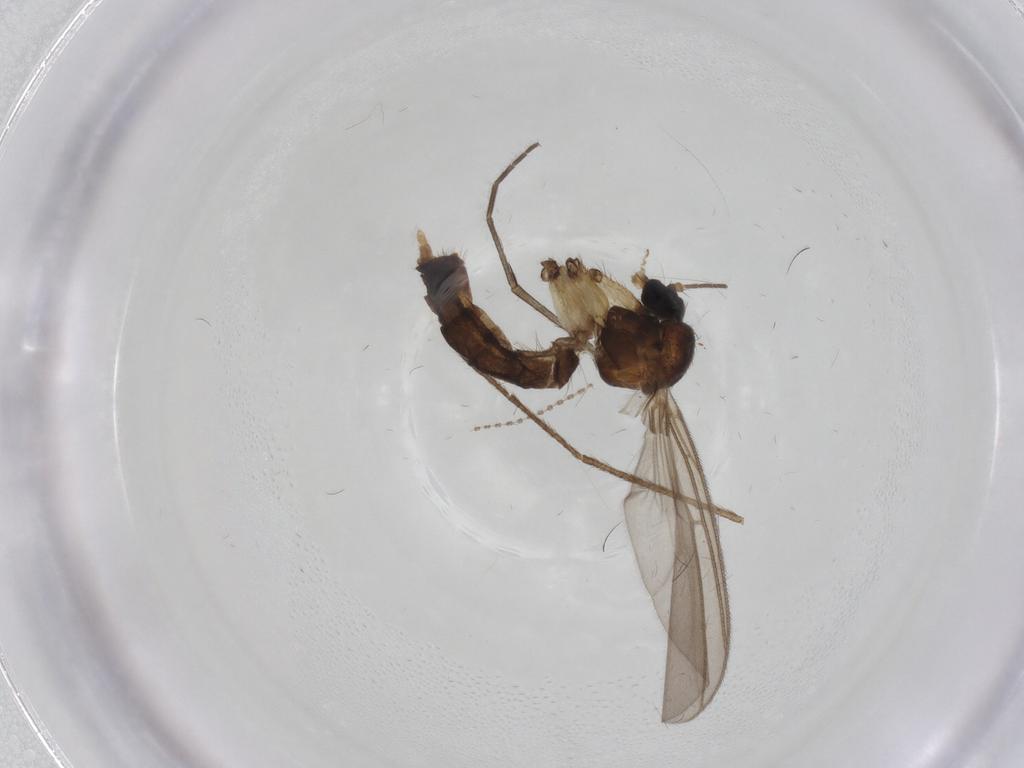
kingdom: Animalia
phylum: Arthropoda
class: Insecta
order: Diptera
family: Mycetophilidae
